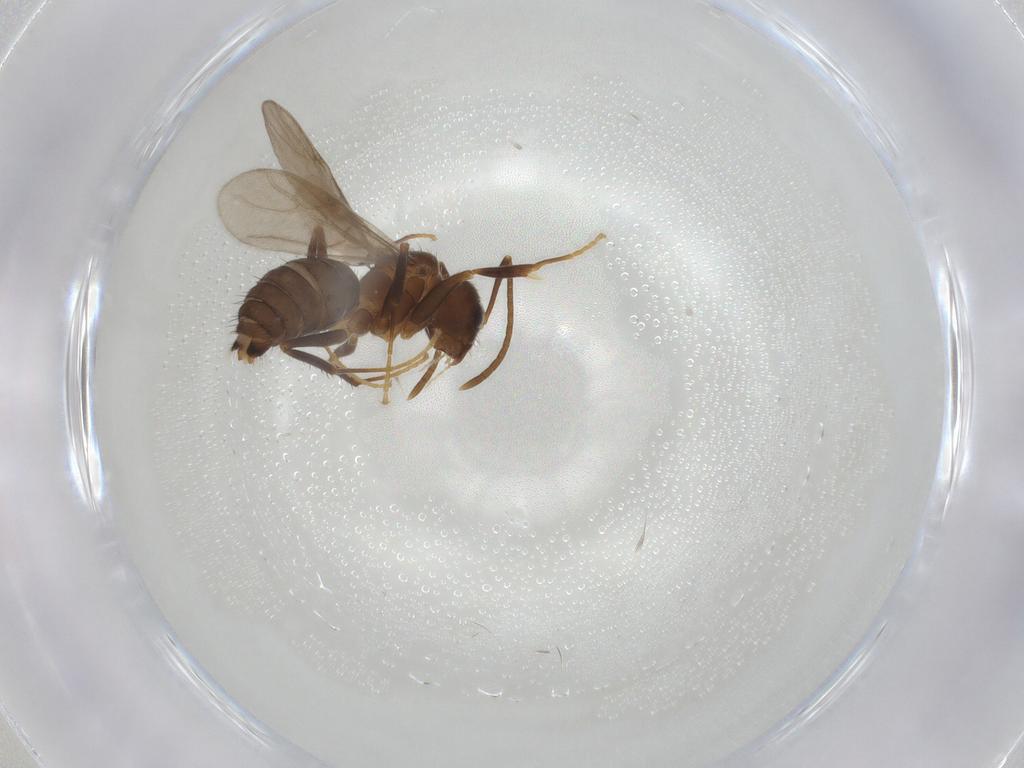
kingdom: Animalia
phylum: Arthropoda
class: Insecta
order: Hymenoptera
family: Formicidae
